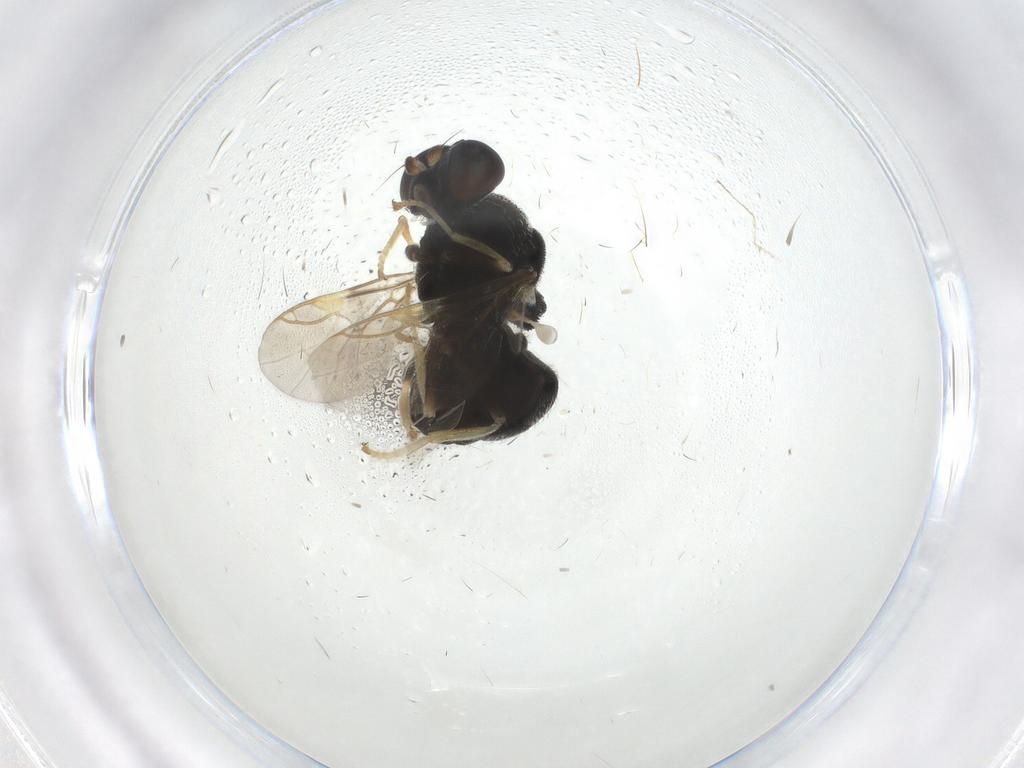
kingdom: Animalia
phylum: Arthropoda
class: Insecta
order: Diptera
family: Stratiomyidae
